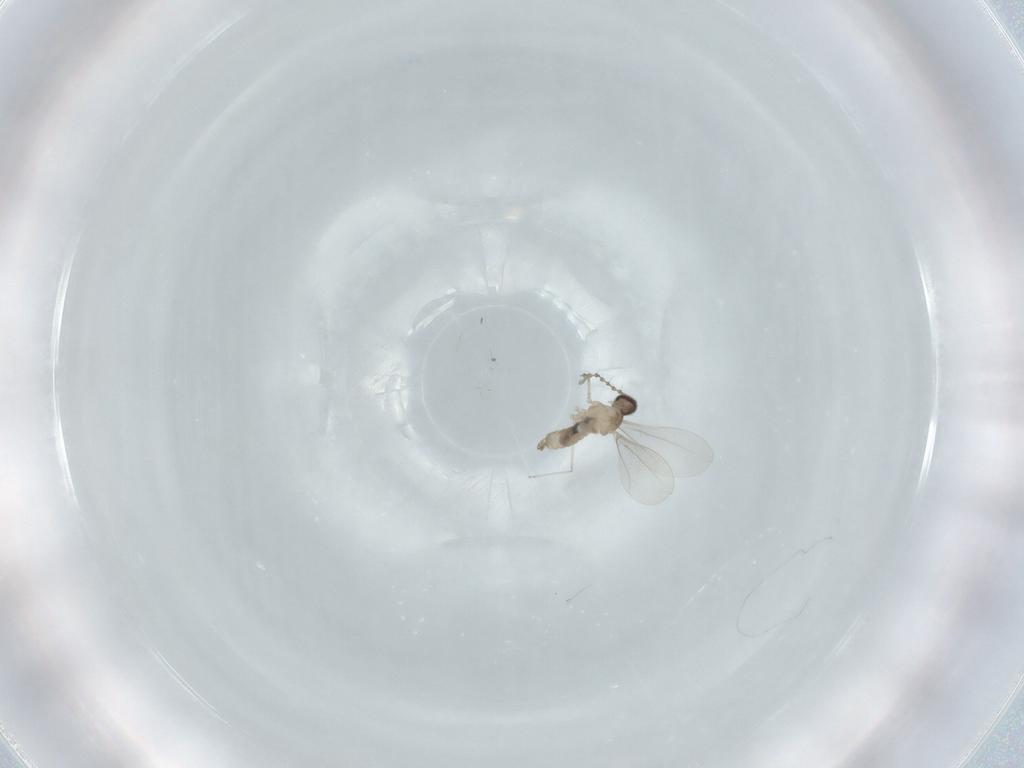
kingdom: Animalia
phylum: Arthropoda
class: Insecta
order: Diptera
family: Cecidomyiidae
